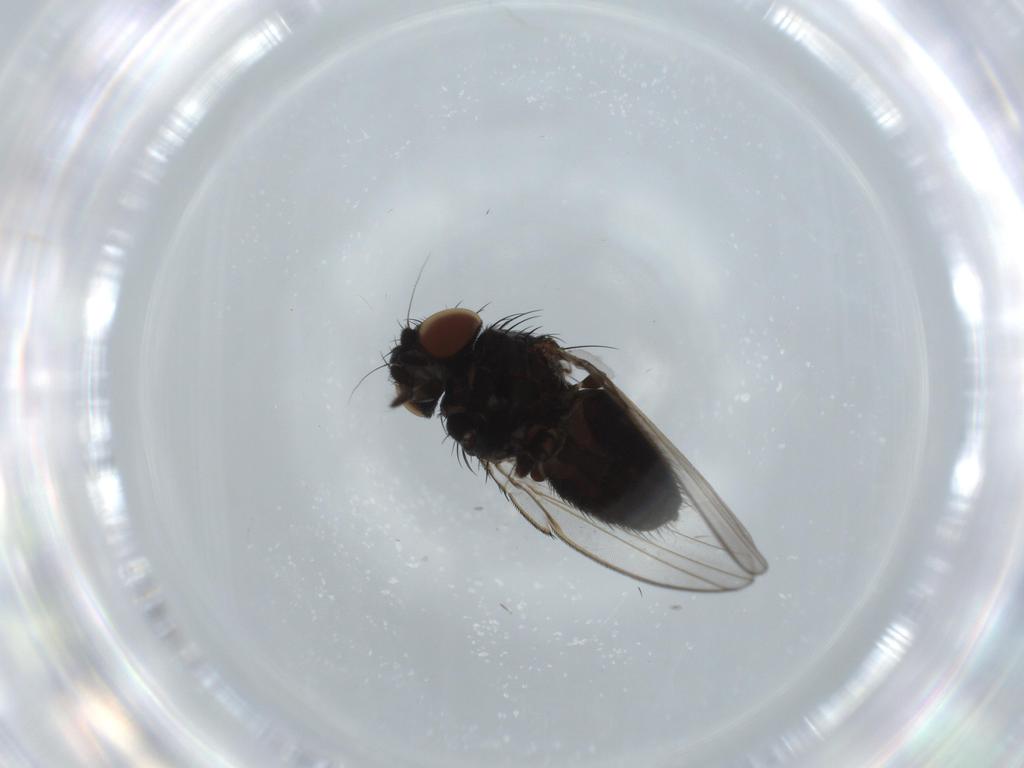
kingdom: Animalia
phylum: Arthropoda
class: Insecta
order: Diptera
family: Milichiidae
